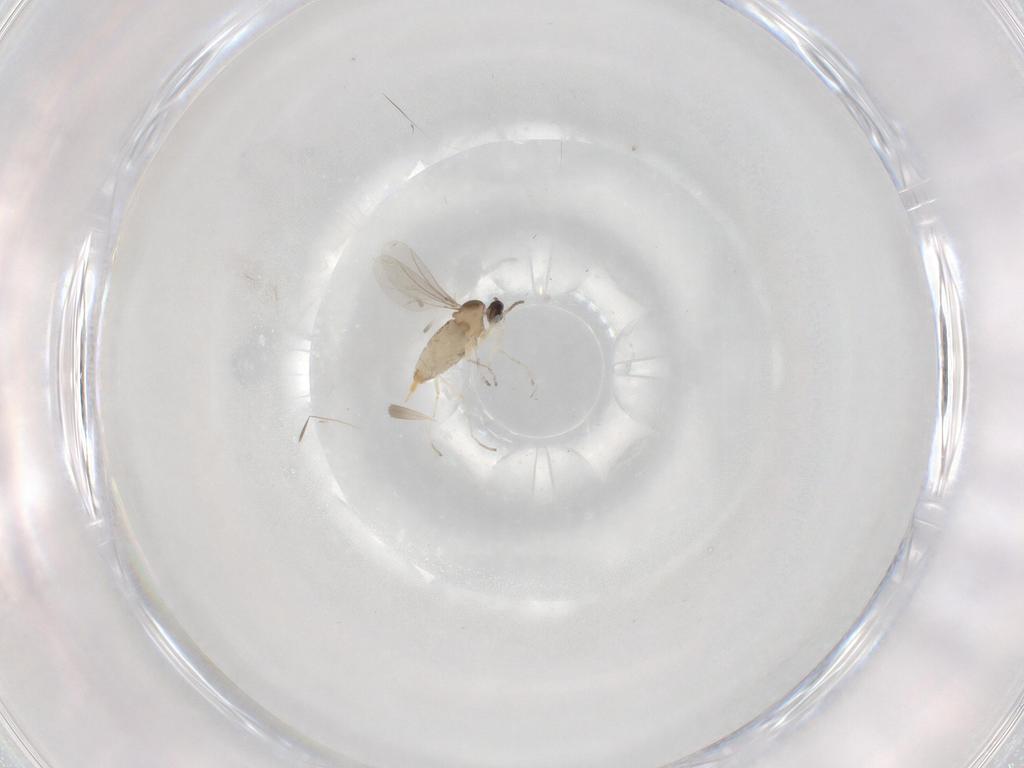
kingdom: Animalia
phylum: Arthropoda
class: Insecta
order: Diptera
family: Cecidomyiidae
